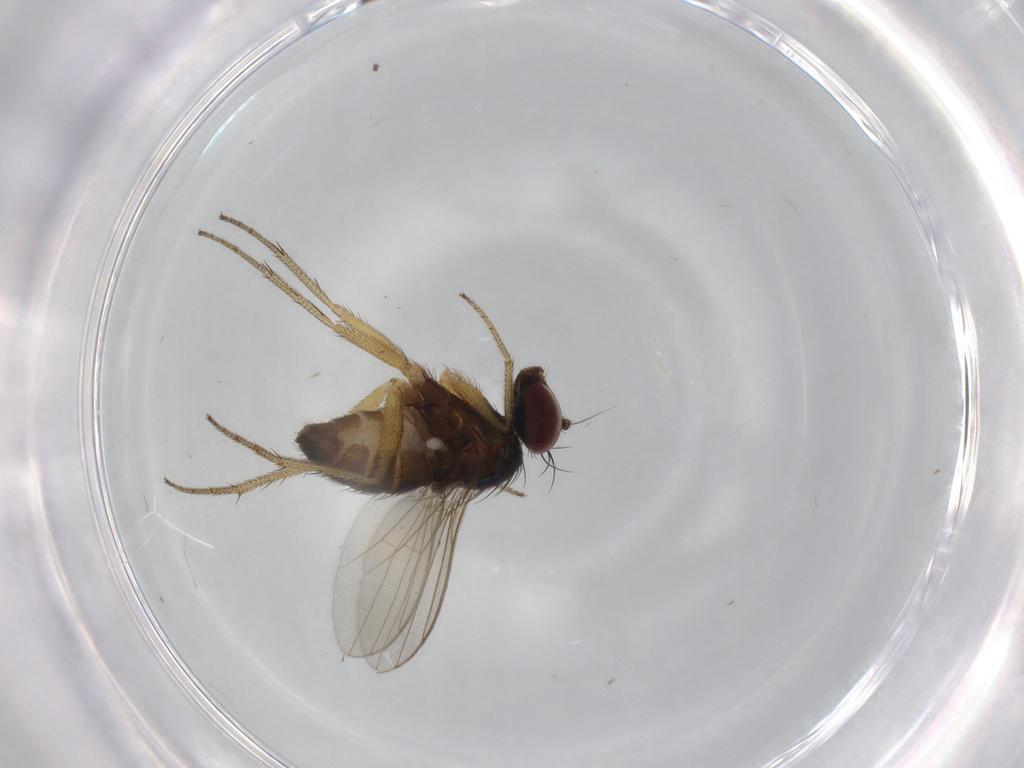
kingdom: Animalia
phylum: Arthropoda
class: Insecta
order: Diptera
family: Dolichopodidae
